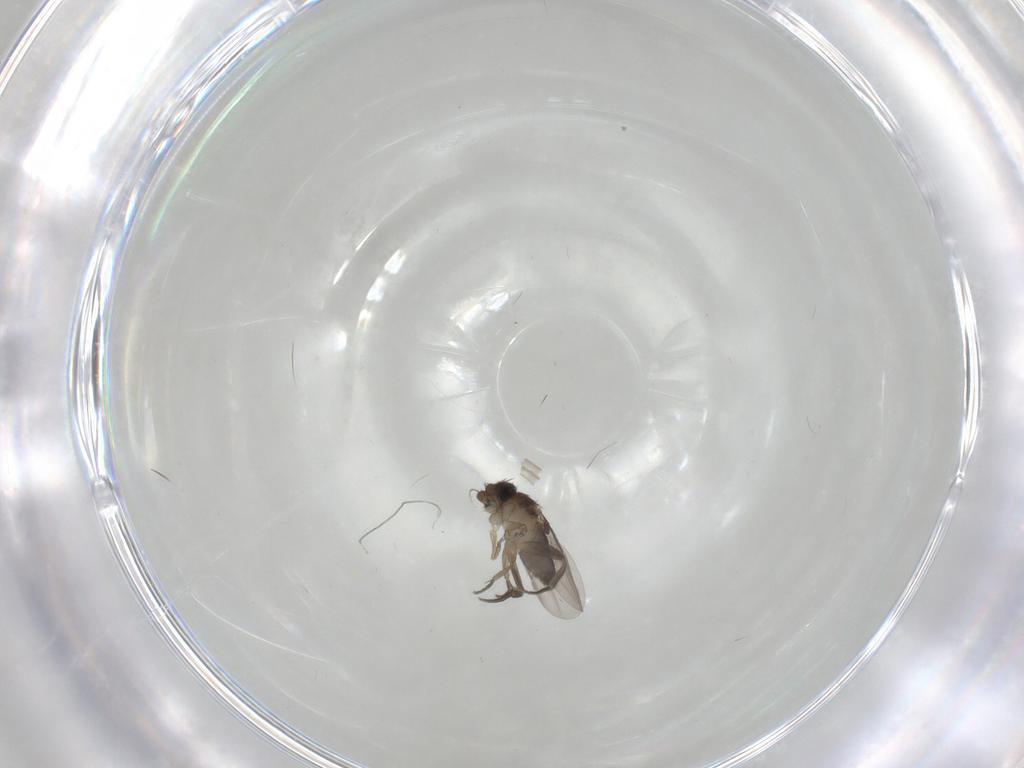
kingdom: Animalia
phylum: Arthropoda
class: Insecta
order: Diptera
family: Phoridae
